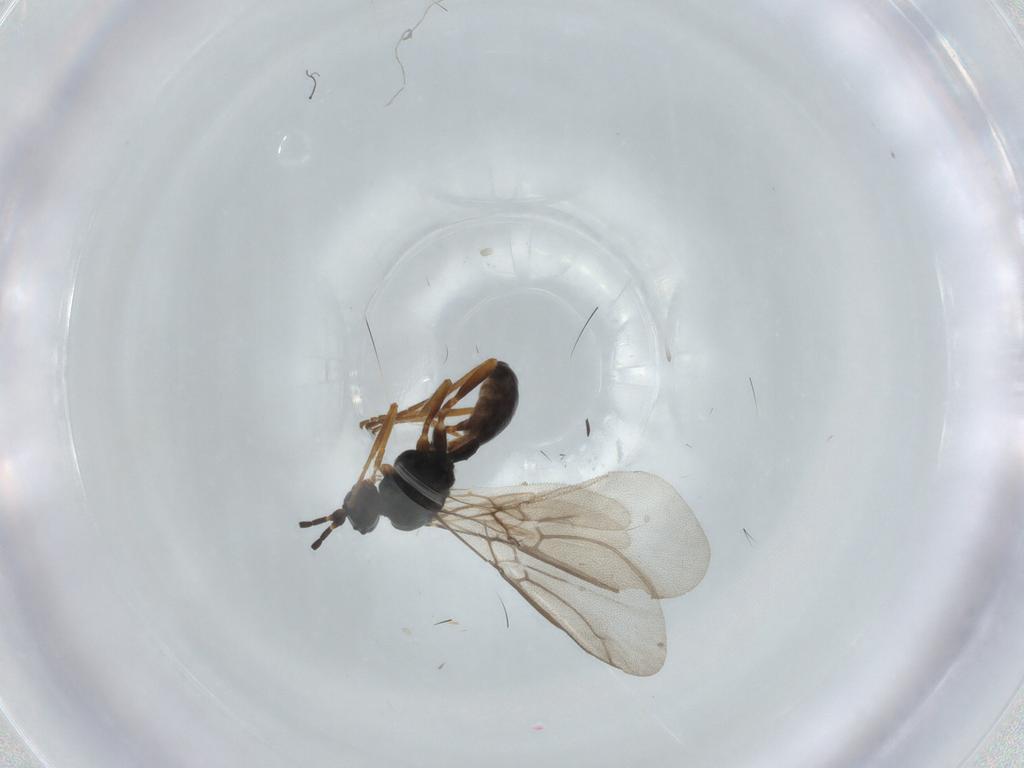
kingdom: Animalia
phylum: Arthropoda
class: Insecta
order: Hymenoptera
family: Braconidae
